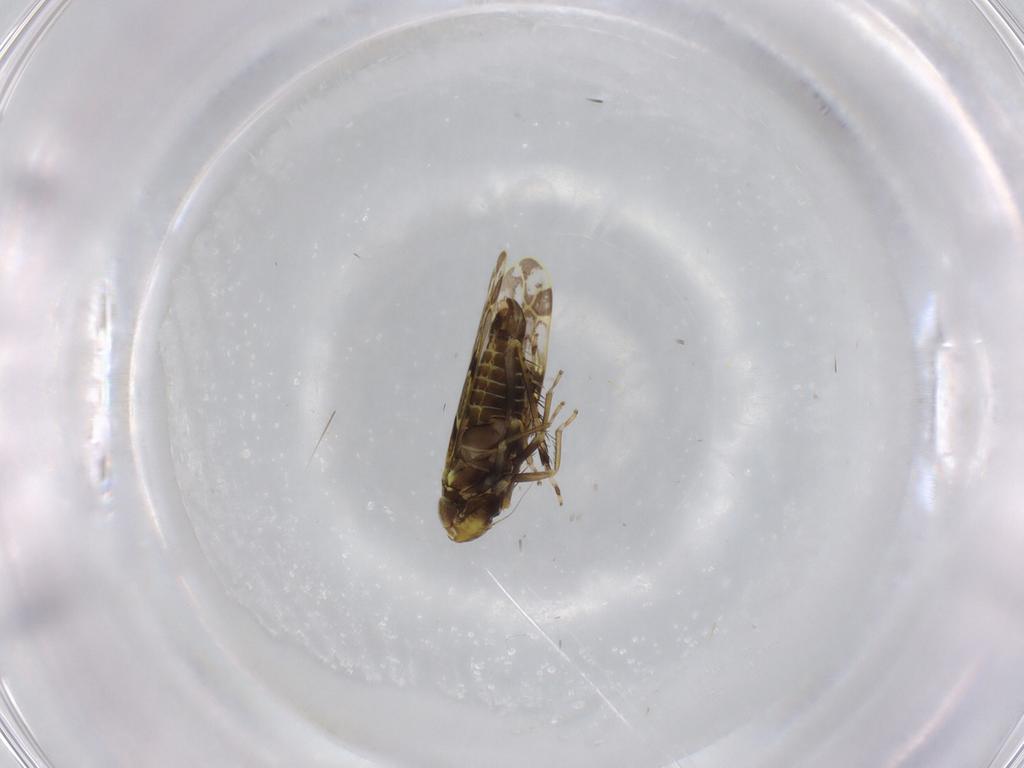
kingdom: Animalia
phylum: Arthropoda
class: Insecta
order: Hemiptera
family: Cicadellidae
